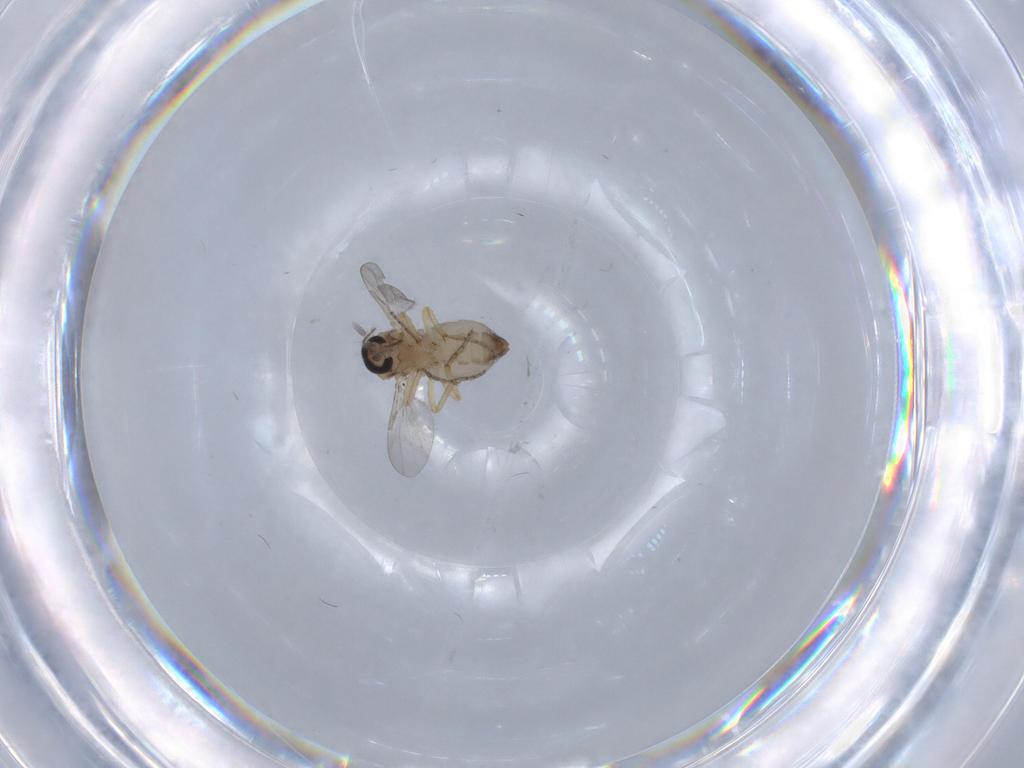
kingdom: Animalia
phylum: Arthropoda
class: Insecta
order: Diptera
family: Ceratopogonidae
